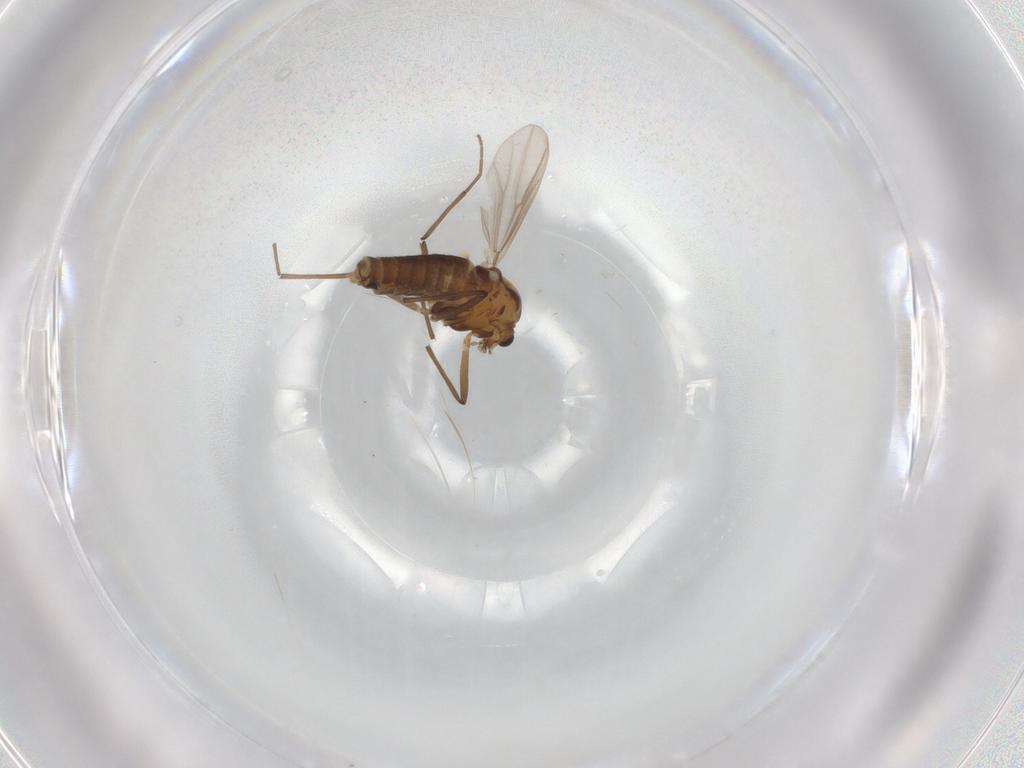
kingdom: Animalia
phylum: Arthropoda
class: Insecta
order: Diptera
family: Chironomidae
